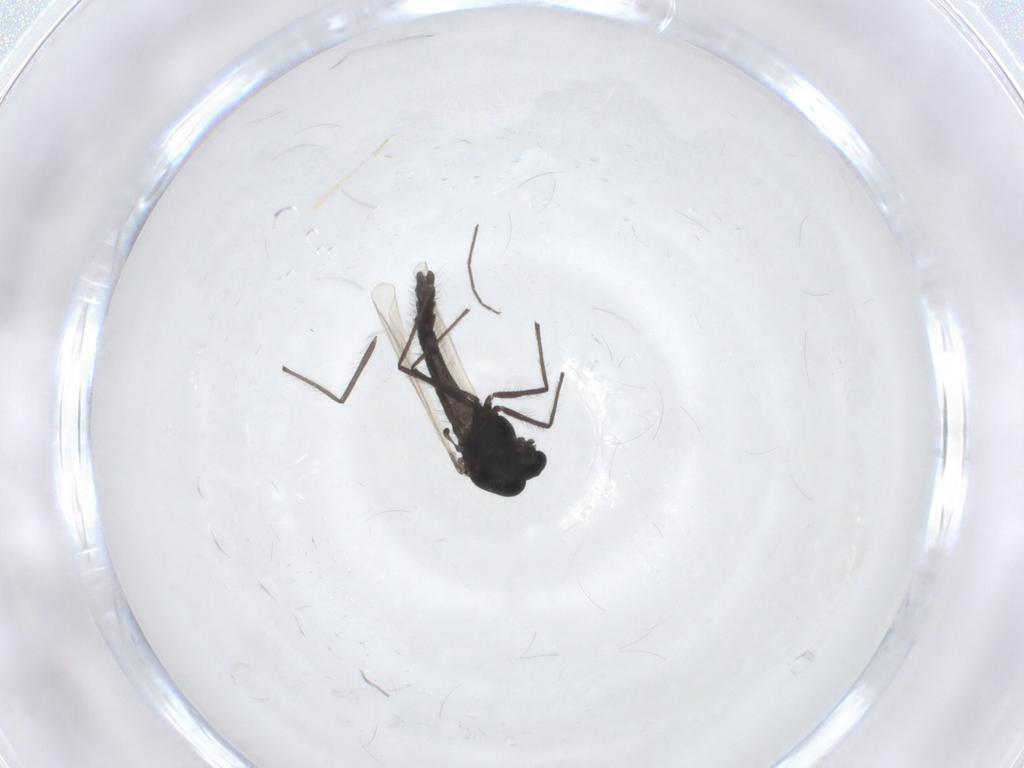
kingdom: Animalia
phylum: Arthropoda
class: Insecta
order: Diptera
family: Chironomidae
